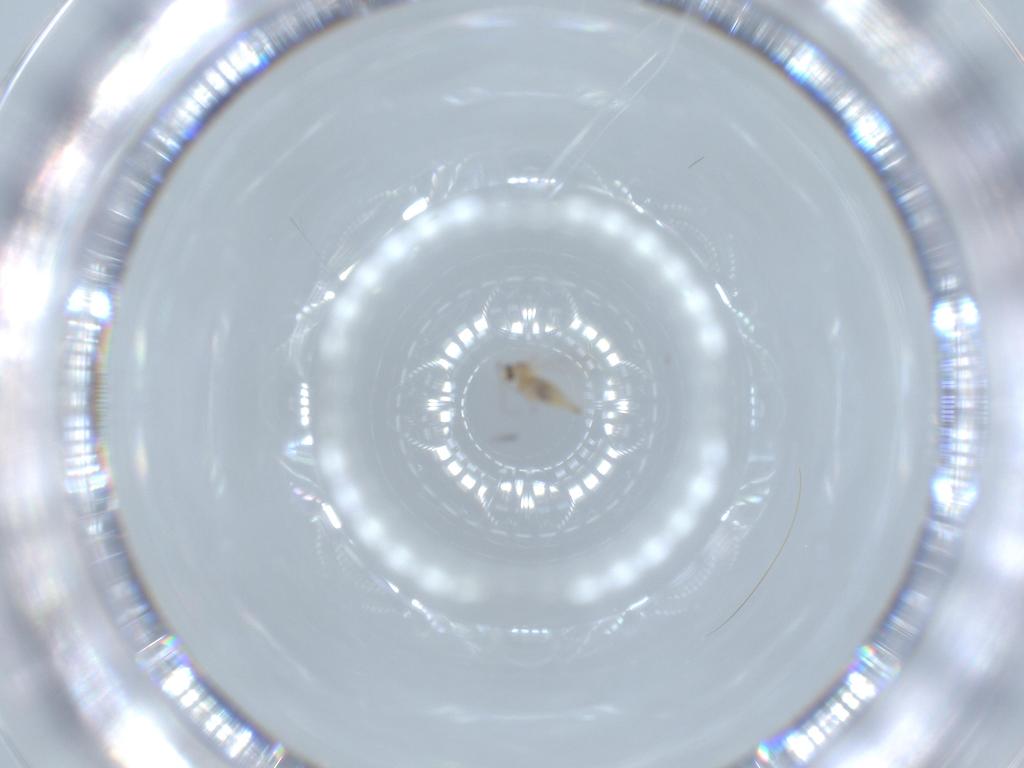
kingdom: Animalia
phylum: Arthropoda
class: Insecta
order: Diptera
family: Cecidomyiidae
